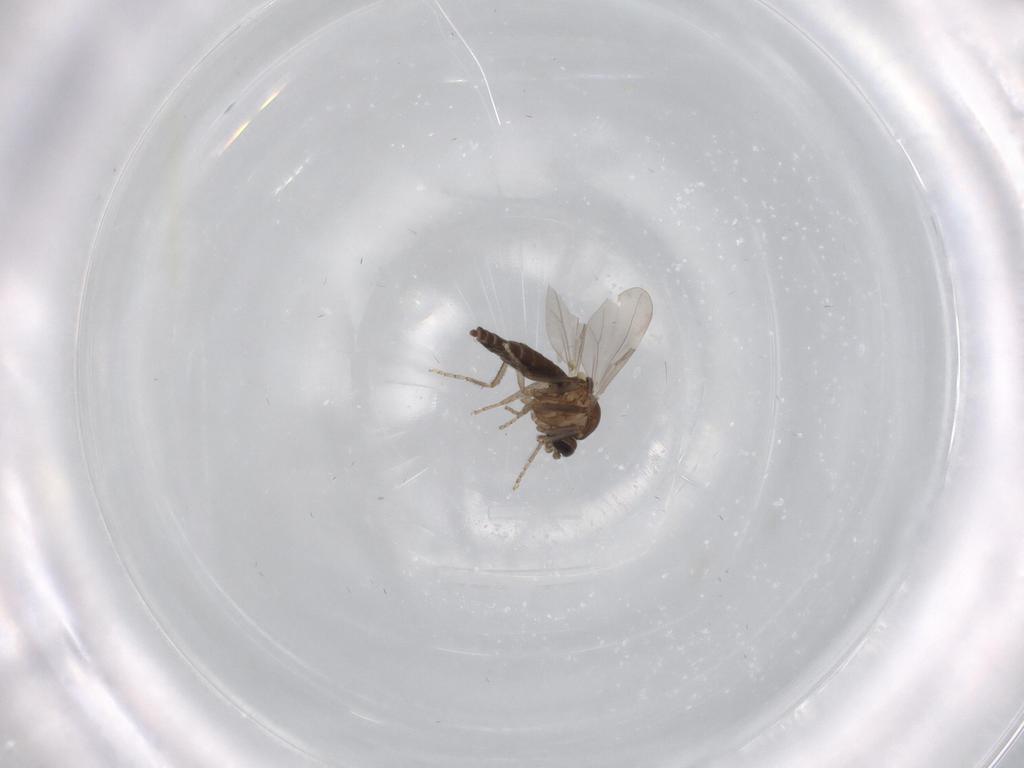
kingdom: Animalia
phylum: Arthropoda
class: Insecta
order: Diptera
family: Ceratopogonidae
